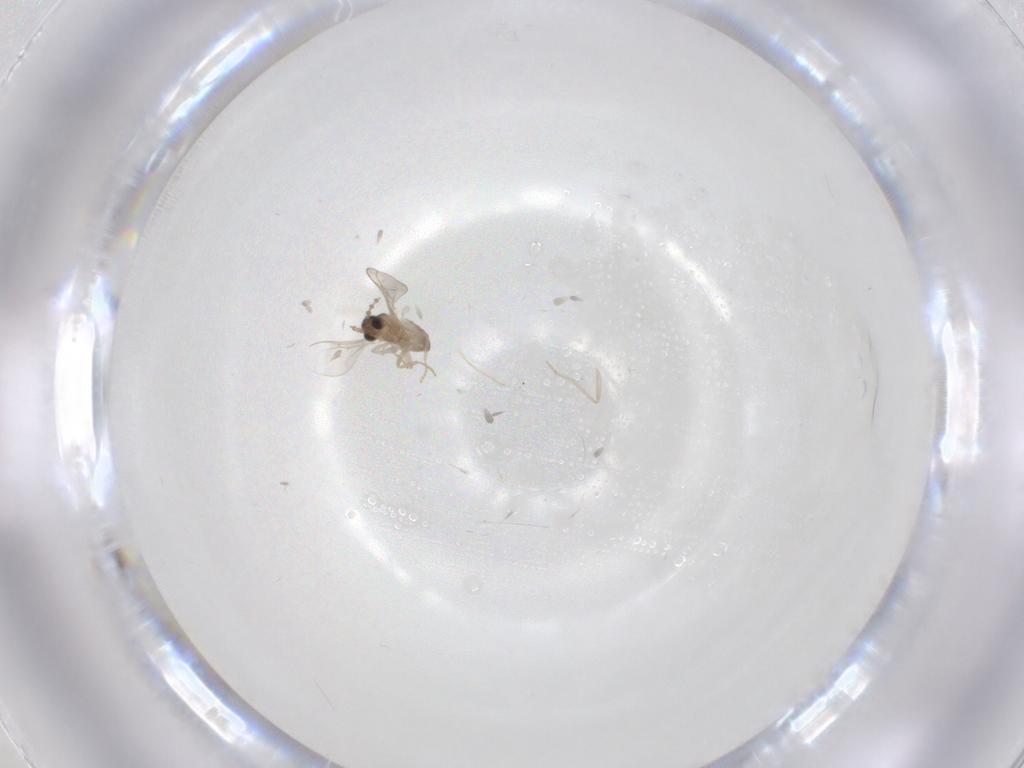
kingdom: Animalia
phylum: Arthropoda
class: Insecta
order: Diptera
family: Cecidomyiidae
